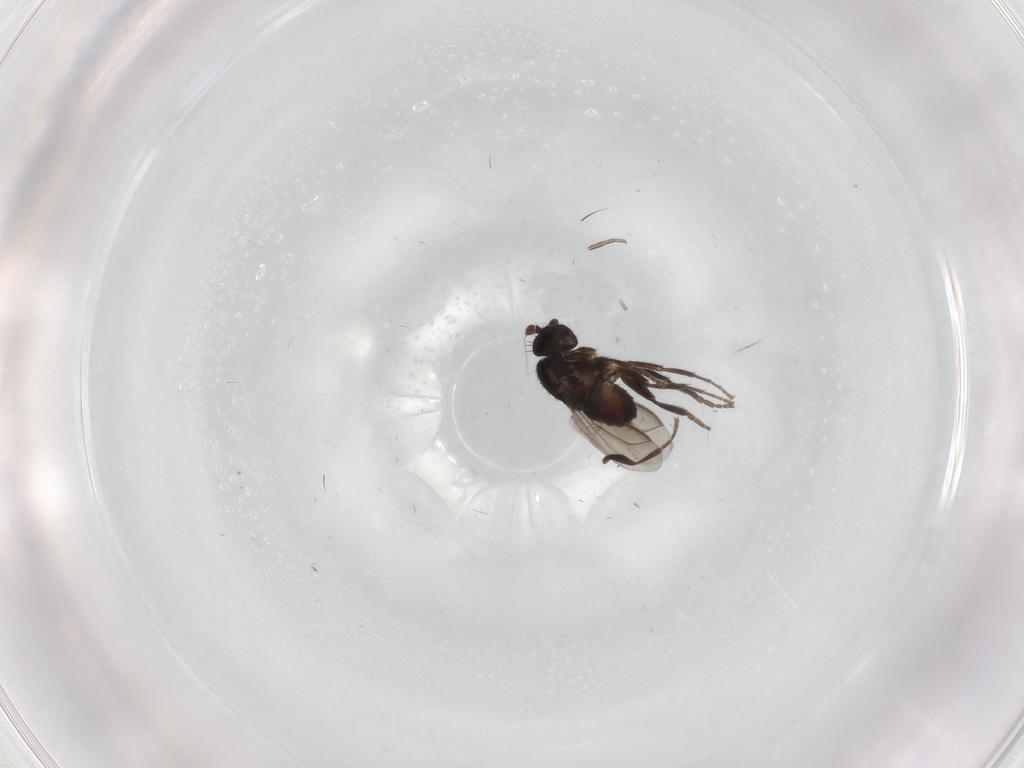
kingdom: Animalia
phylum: Arthropoda
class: Insecta
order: Diptera
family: Phoridae
